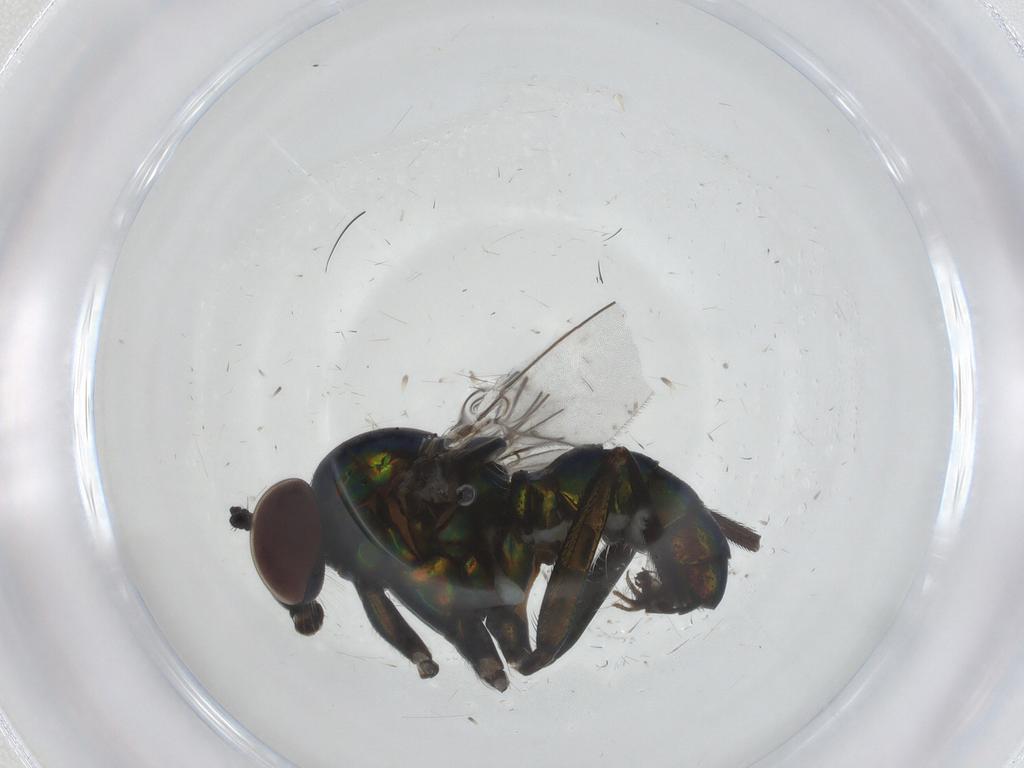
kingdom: Animalia
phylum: Arthropoda
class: Insecta
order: Diptera
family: Dolichopodidae
